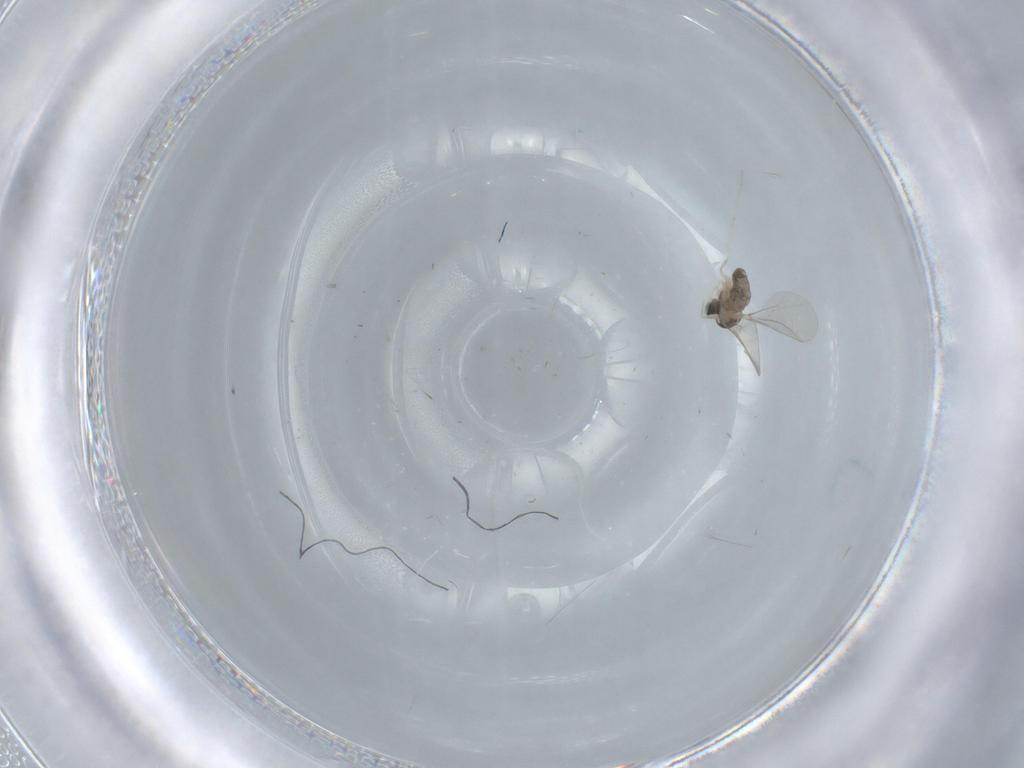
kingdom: Animalia
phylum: Arthropoda
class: Insecta
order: Diptera
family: Cecidomyiidae
